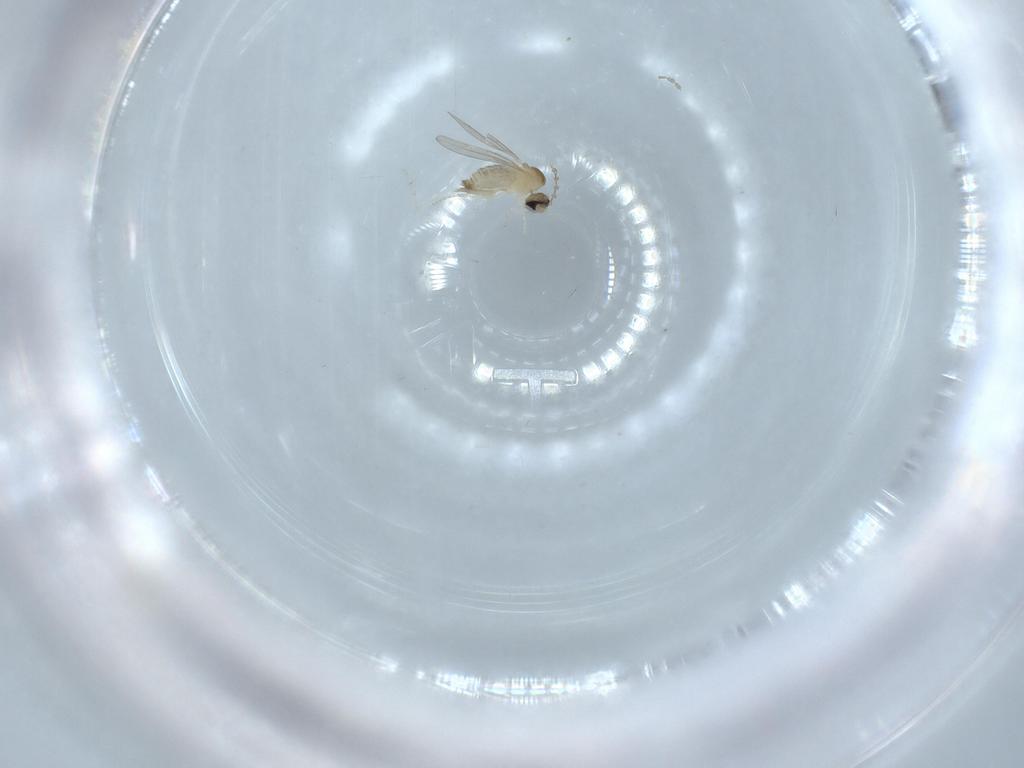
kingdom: Animalia
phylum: Arthropoda
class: Insecta
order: Diptera
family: Cecidomyiidae
